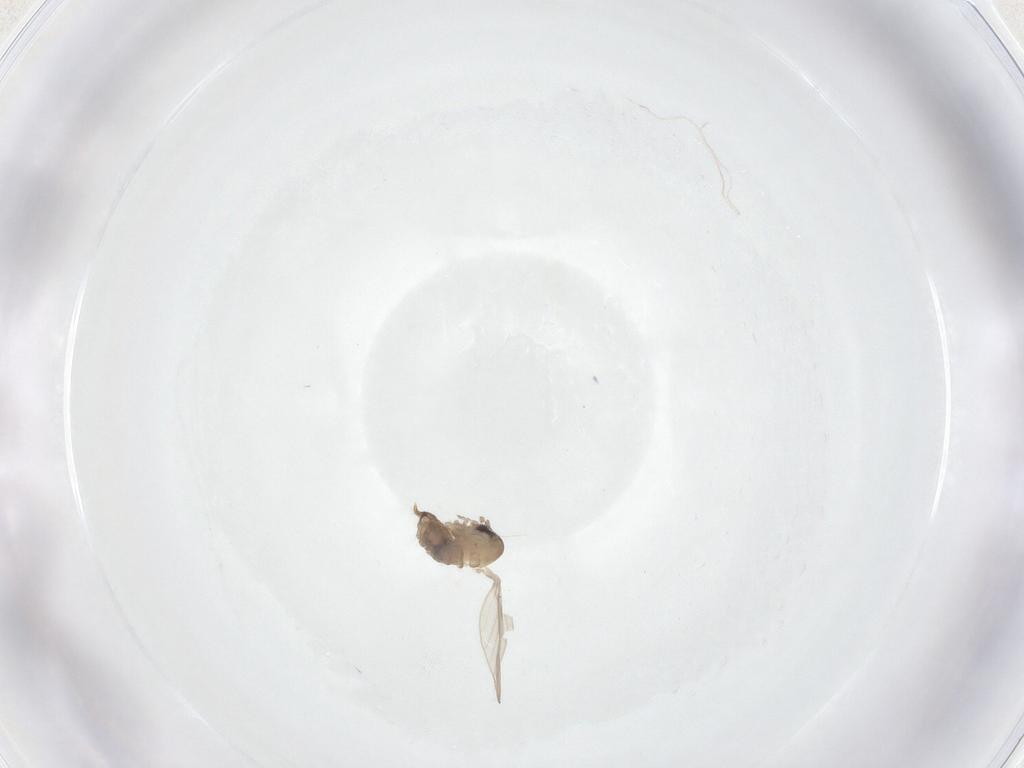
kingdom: Animalia
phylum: Arthropoda
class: Insecta
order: Diptera
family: Psychodidae
